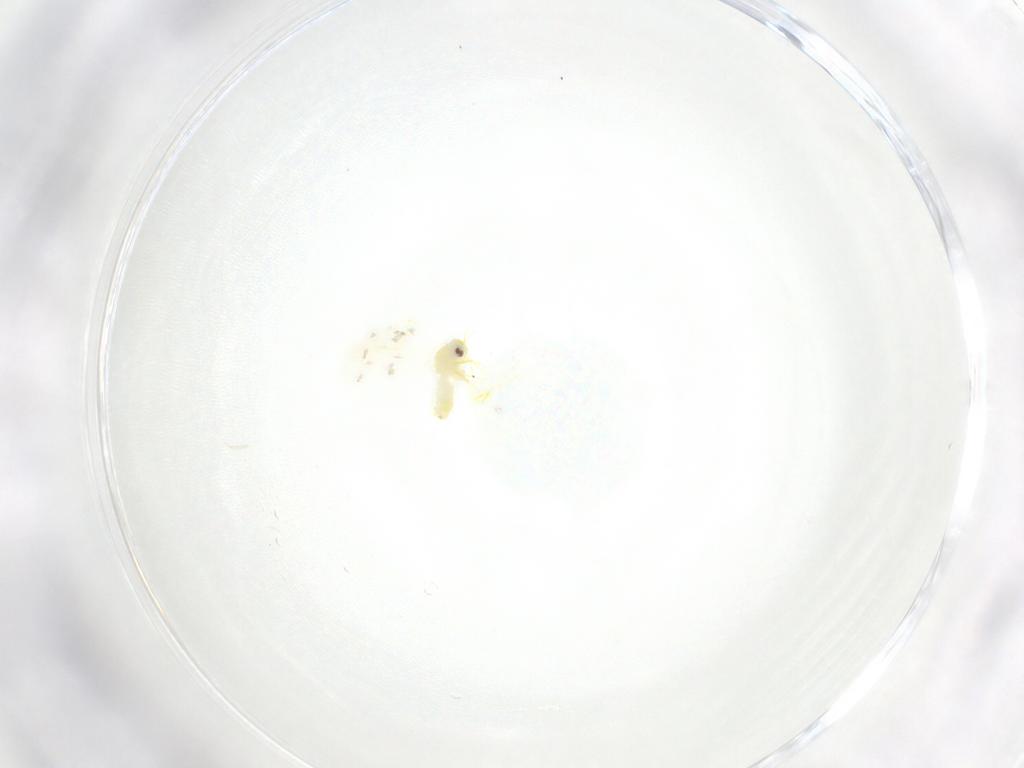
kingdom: Animalia
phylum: Arthropoda
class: Insecta
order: Hemiptera
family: Aleyrodidae
